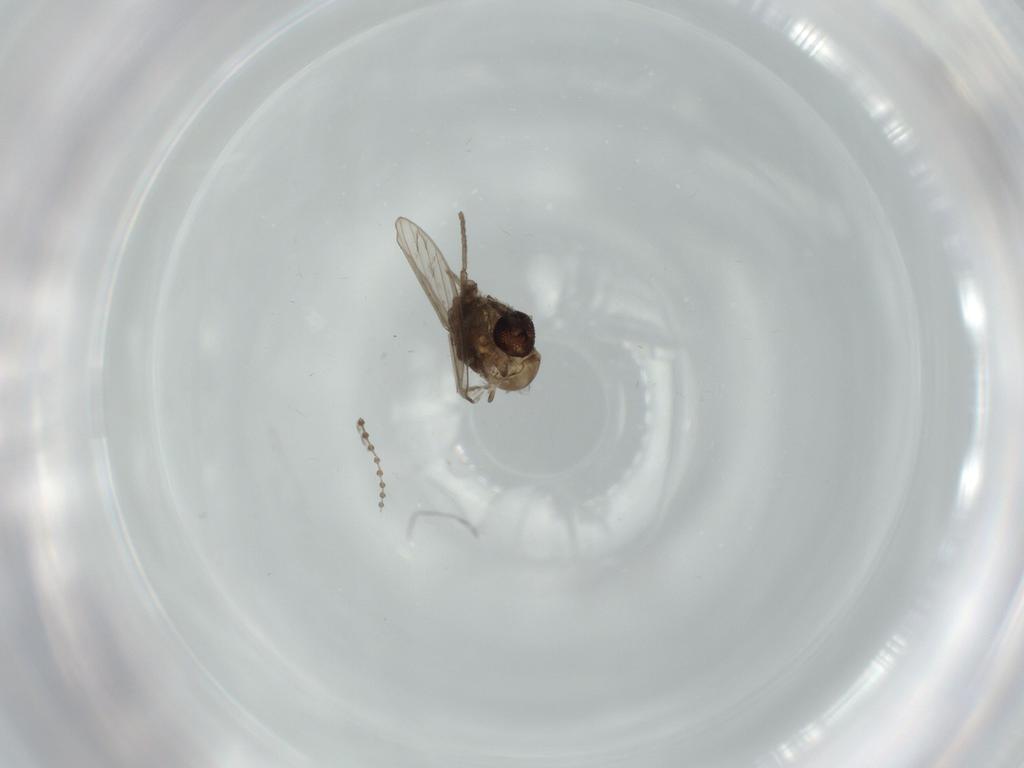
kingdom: Animalia
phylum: Arthropoda
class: Insecta
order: Diptera
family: Psychodidae
